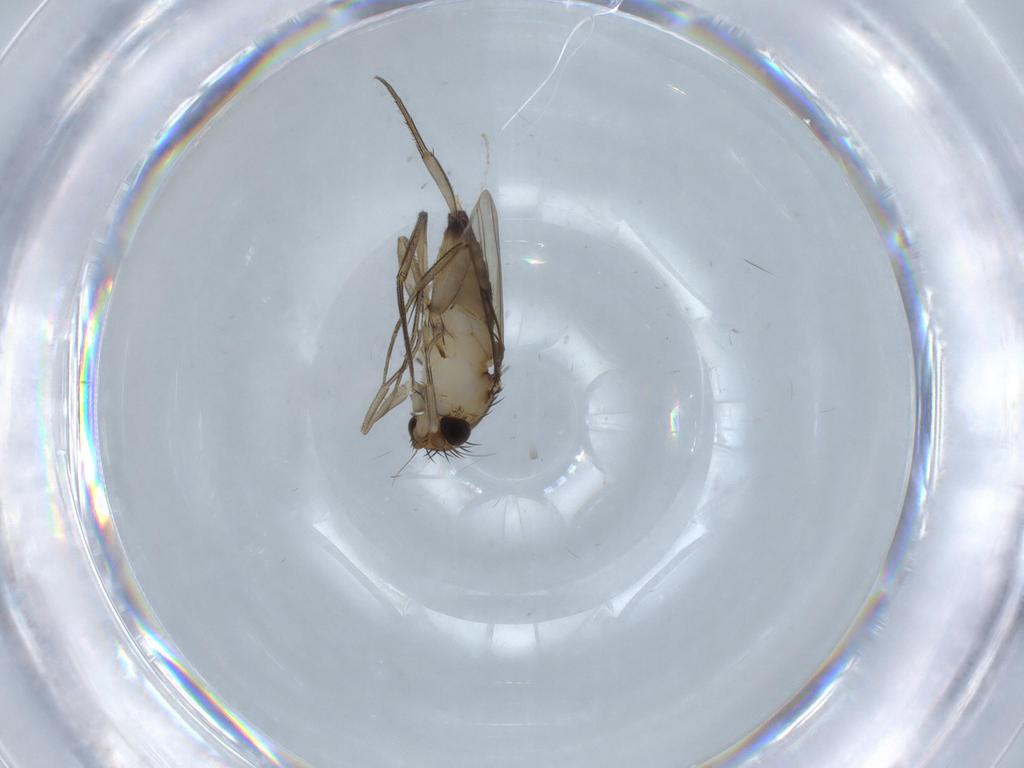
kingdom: Animalia
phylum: Arthropoda
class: Insecta
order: Diptera
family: Cecidomyiidae
